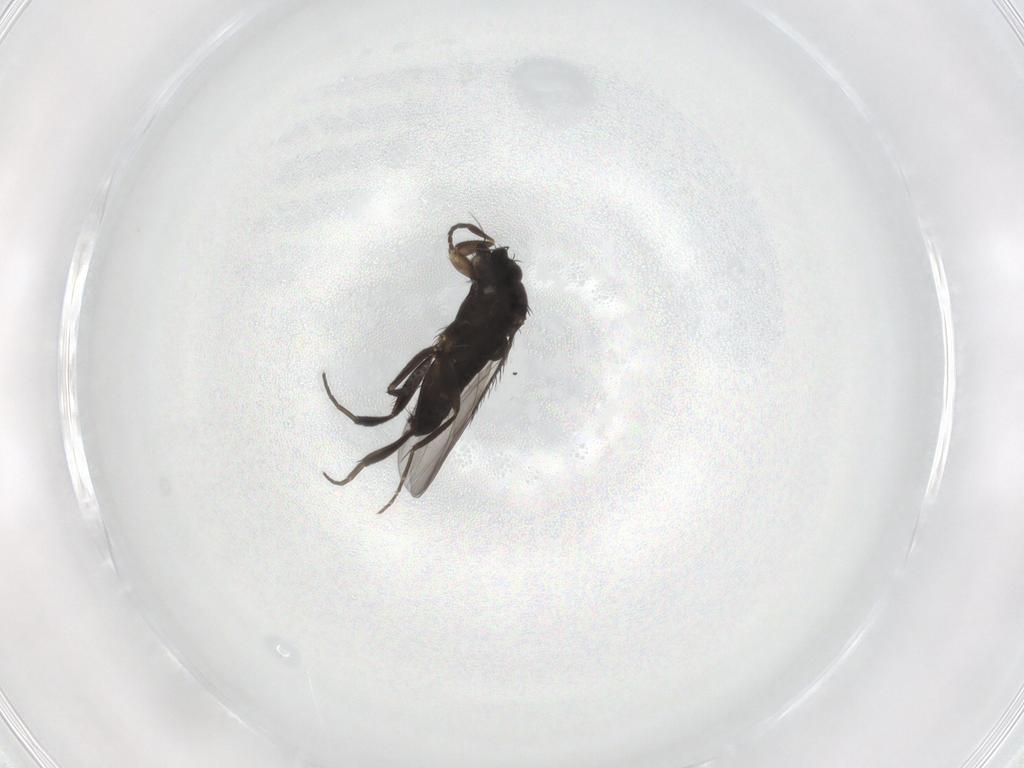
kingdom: Animalia
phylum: Arthropoda
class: Insecta
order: Diptera
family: Phoridae
